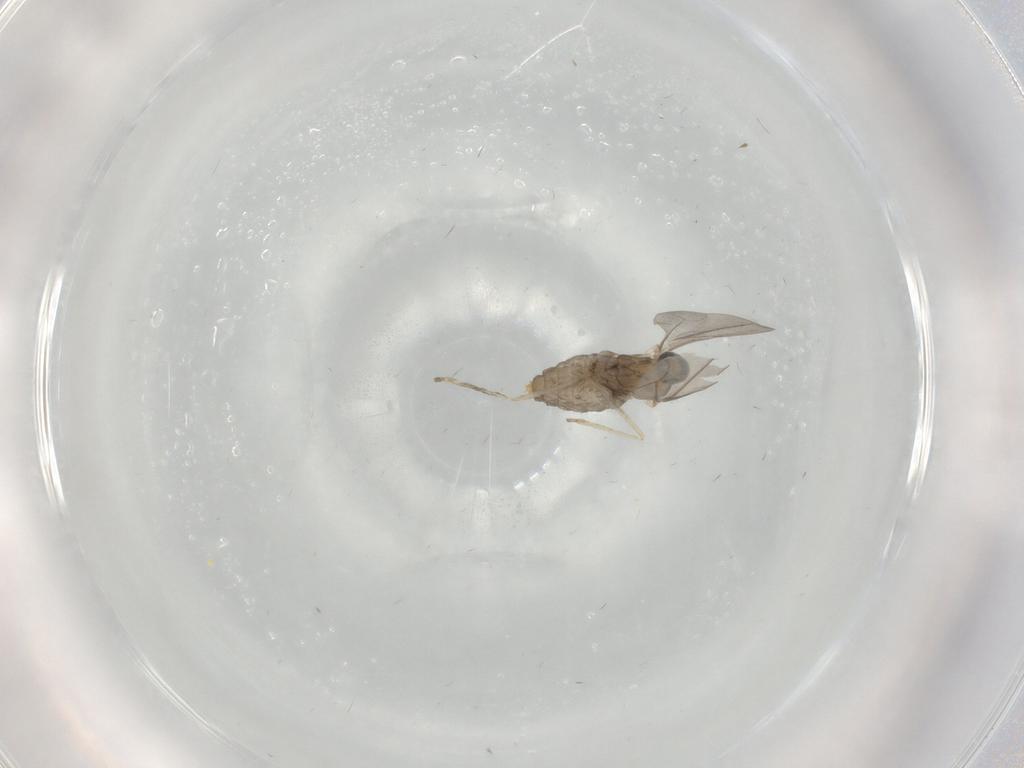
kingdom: Animalia
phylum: Arthropoda
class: Insecta
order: Diptera
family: Cecidomyiidae
